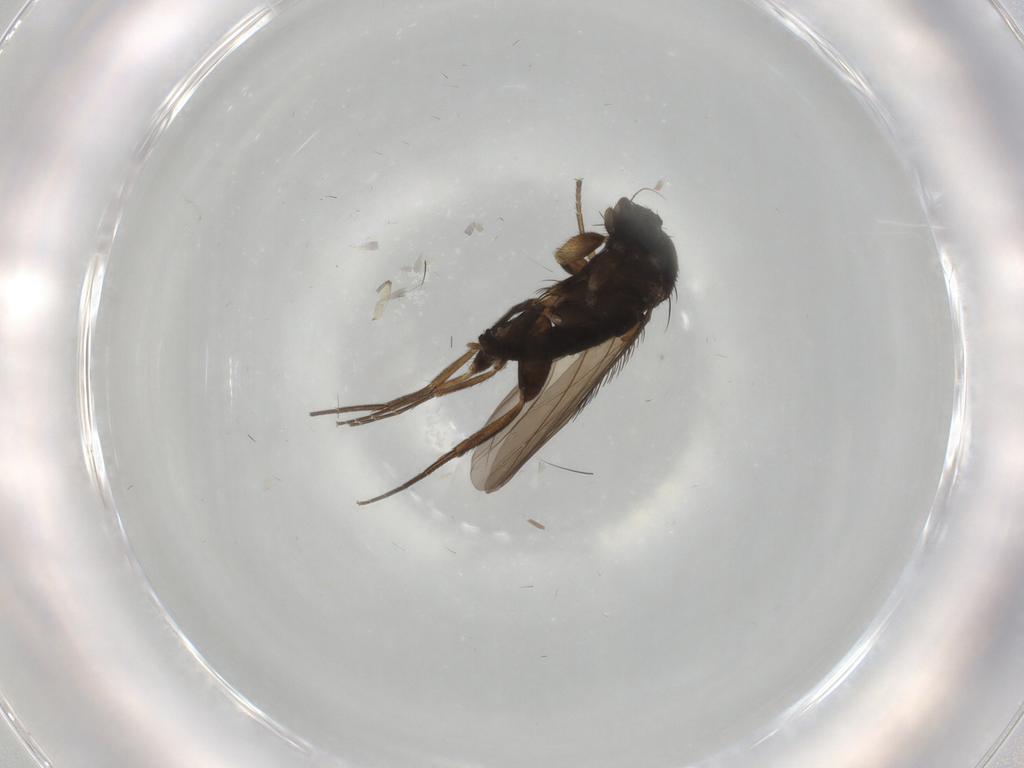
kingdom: Animalia
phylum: Arthropoda
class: Insecta
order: Diptera
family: Phoridae
